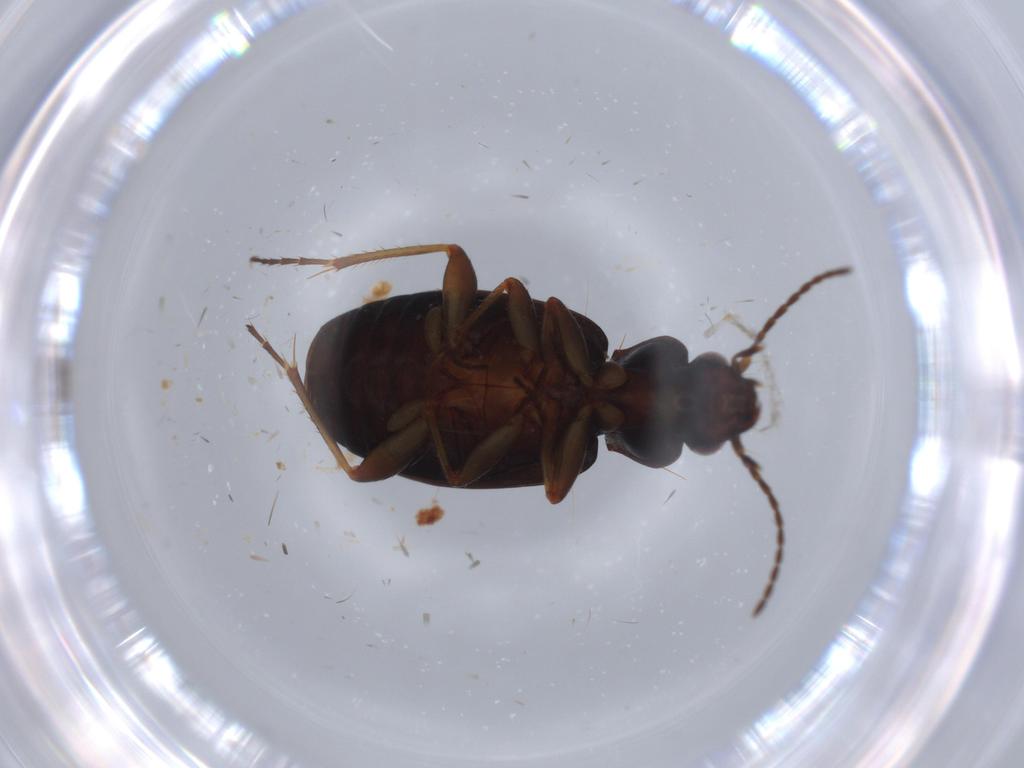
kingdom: Animalia
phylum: Arthropoda
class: Insecta
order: Coleoptera
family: Carabidae
